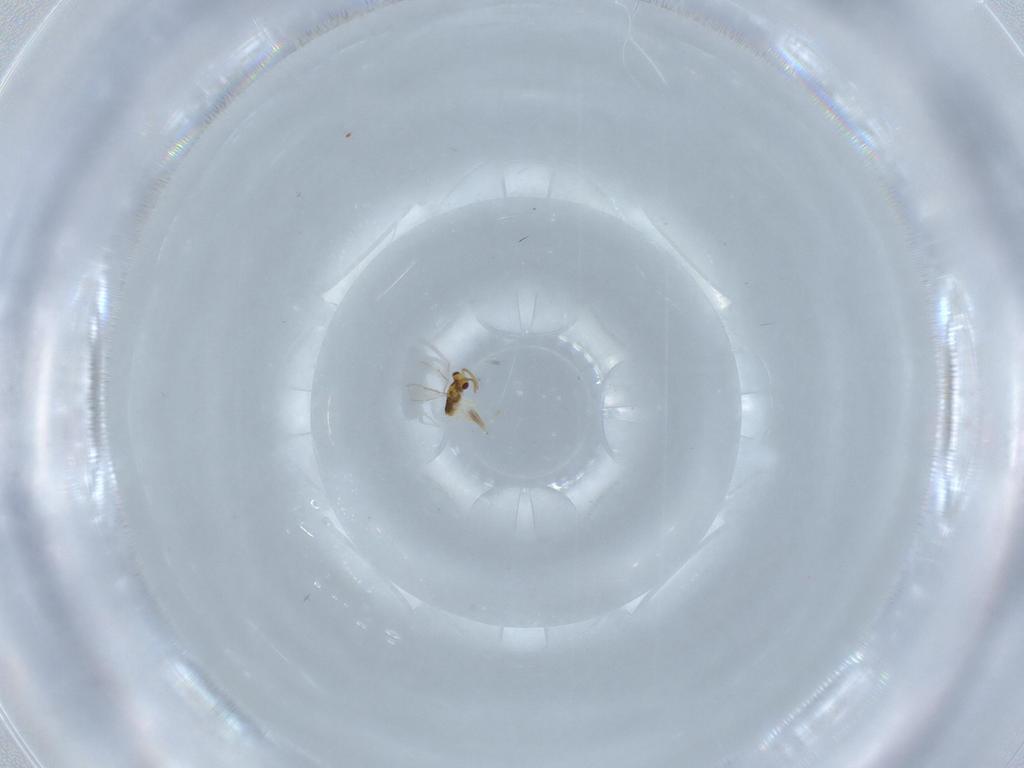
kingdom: Animalia
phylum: Arthropoda
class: Insecta
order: Hymenoptera
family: Aphelinidae
